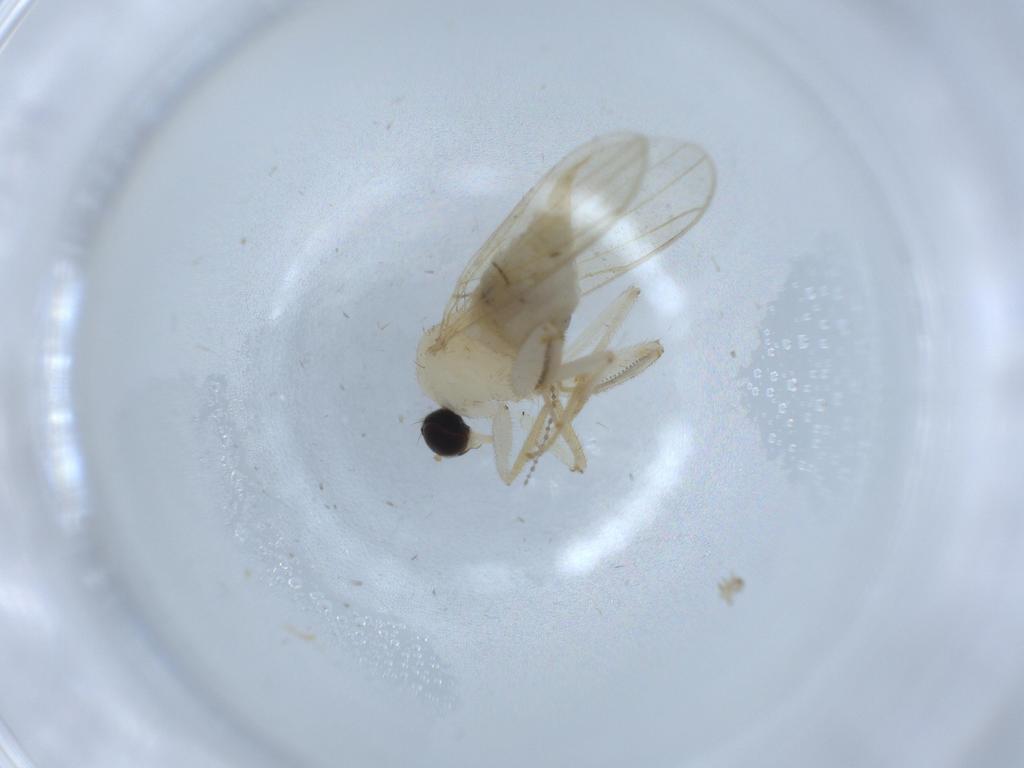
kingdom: Animalia
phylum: Arthropoda
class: Insecta
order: Diptera
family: Hybotidae
